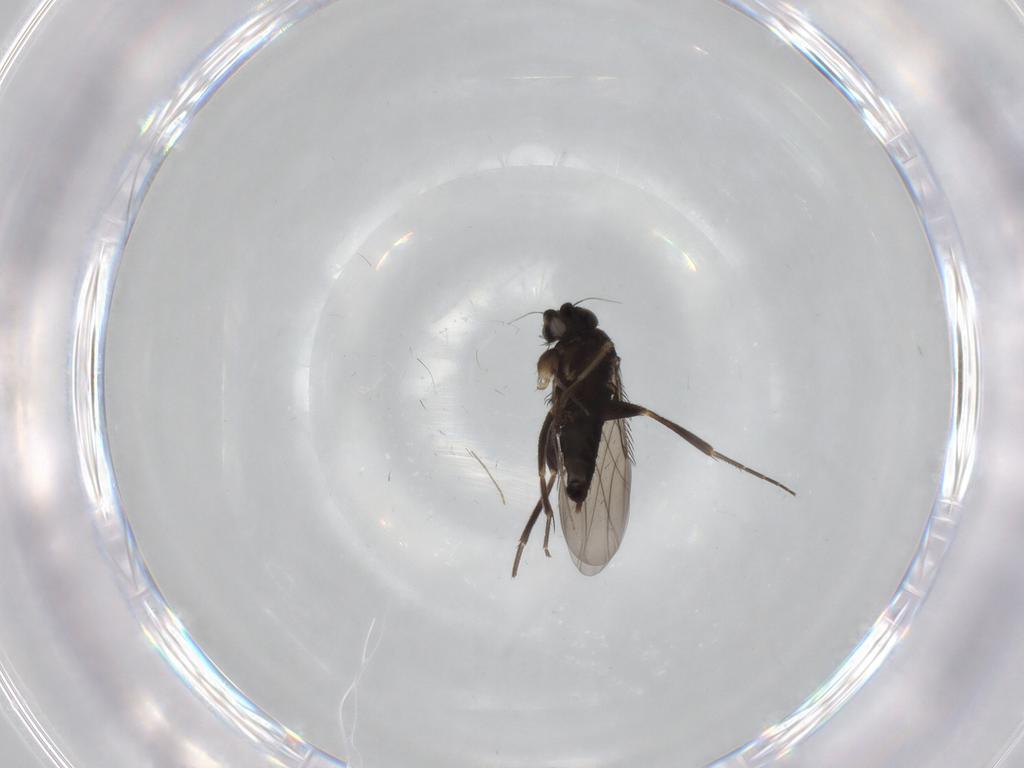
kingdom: Animalia
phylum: Arthropoda
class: Insecta
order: Diptera
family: Phoridae
